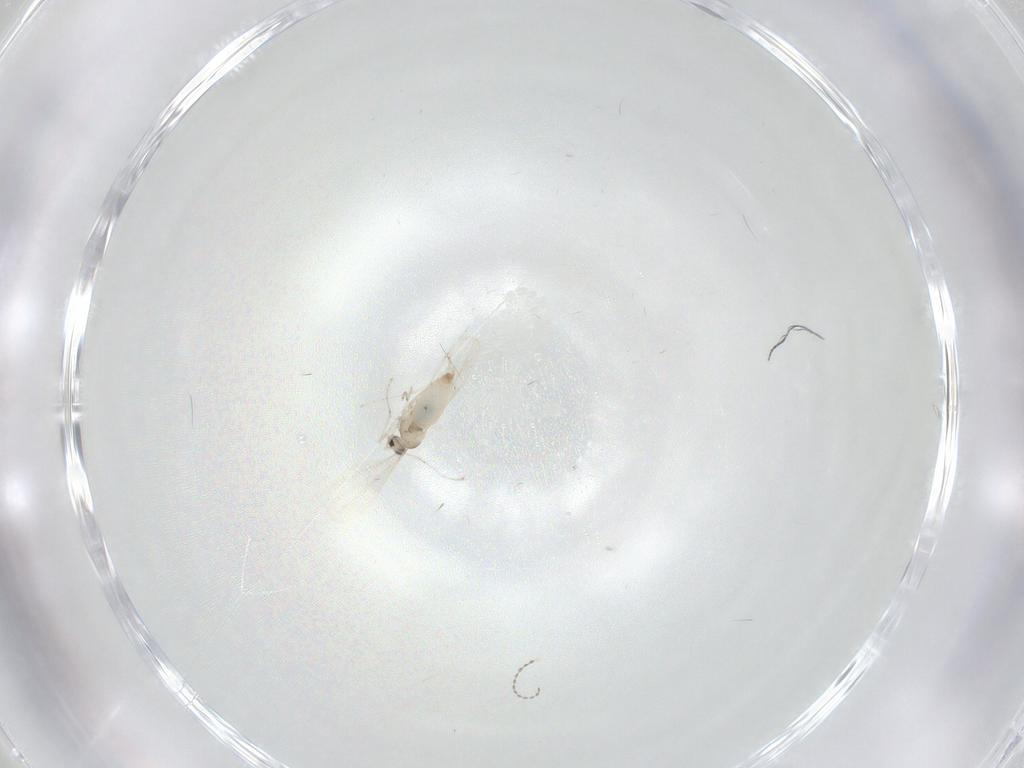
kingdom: Animalia
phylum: Arthropoda
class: Insecta
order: Diptera
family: Cecidomyiidae
